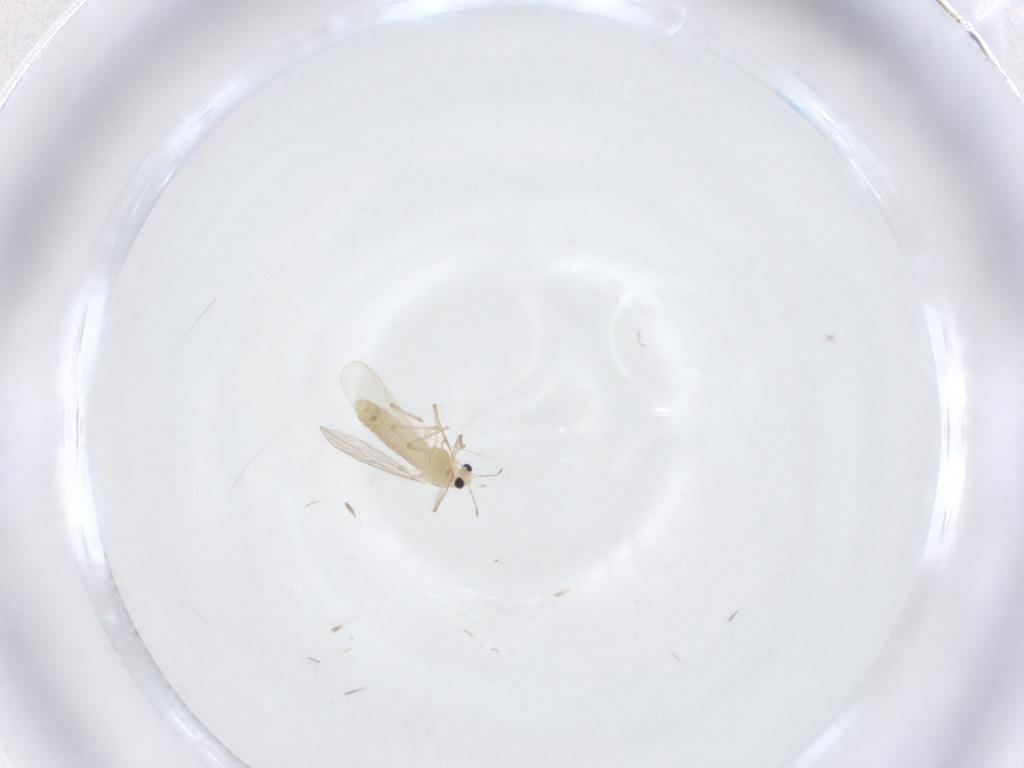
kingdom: Animalia
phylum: Arthropoda
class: Insecta
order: Diptera
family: Chironomidae
